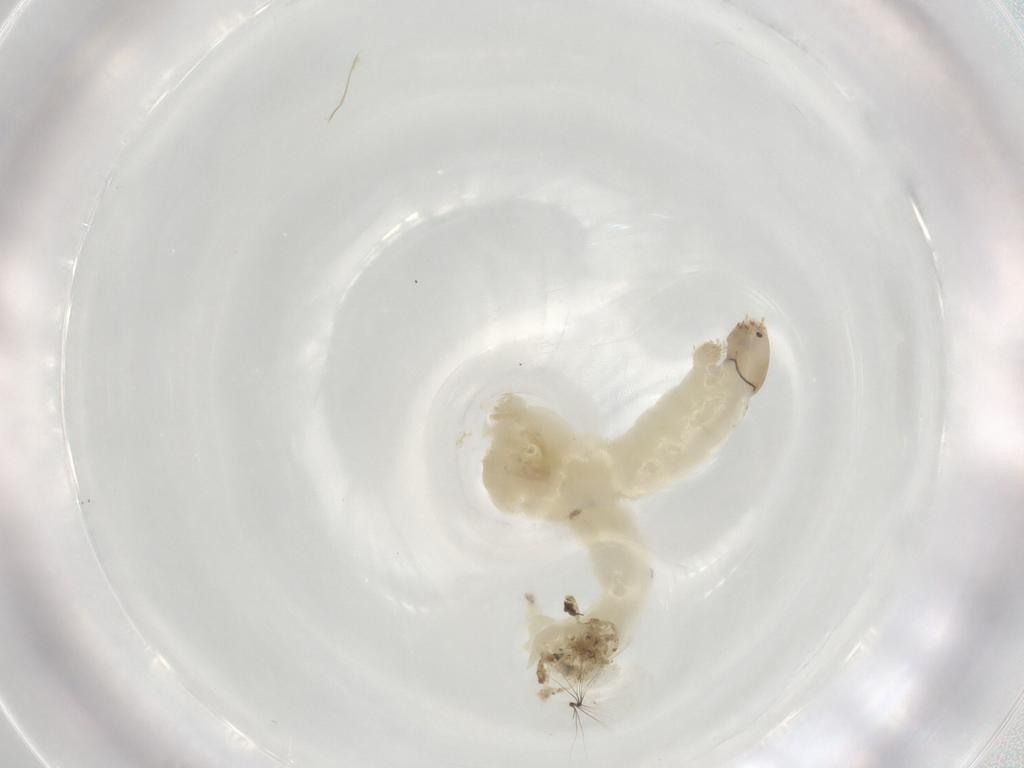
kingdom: Animalia
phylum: Arthropoda
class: Insecta
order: Diptera
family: Chironomidae
